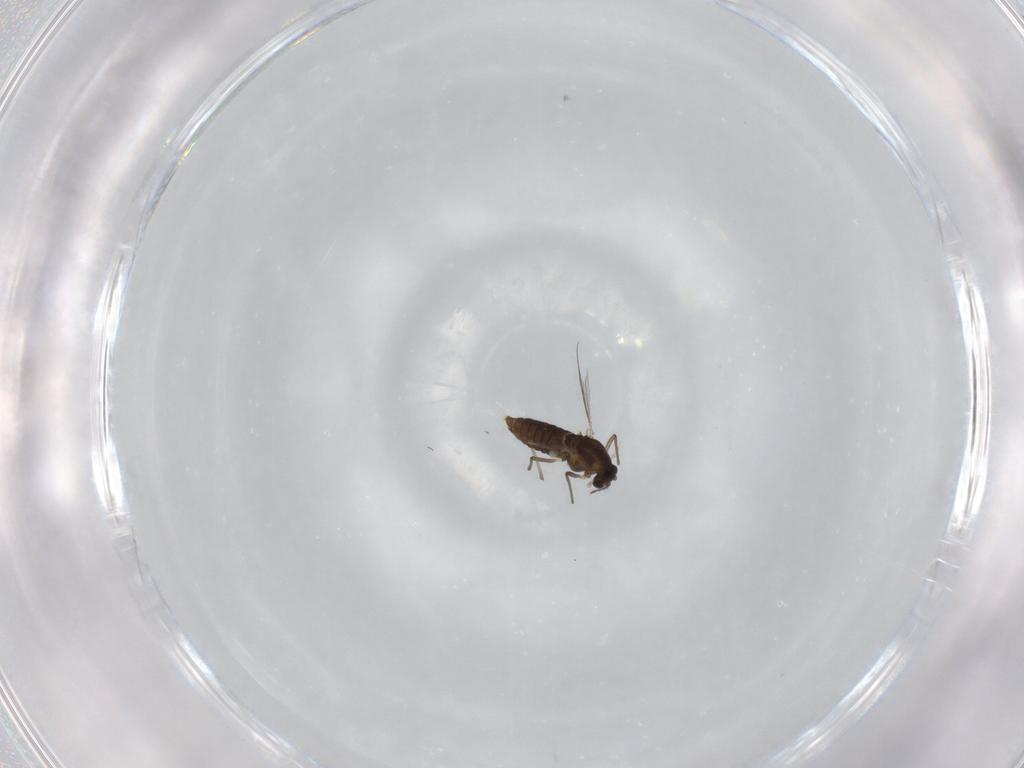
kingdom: Animalia
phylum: Arthropoda
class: Insecta
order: Diptera
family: Chironomidae
